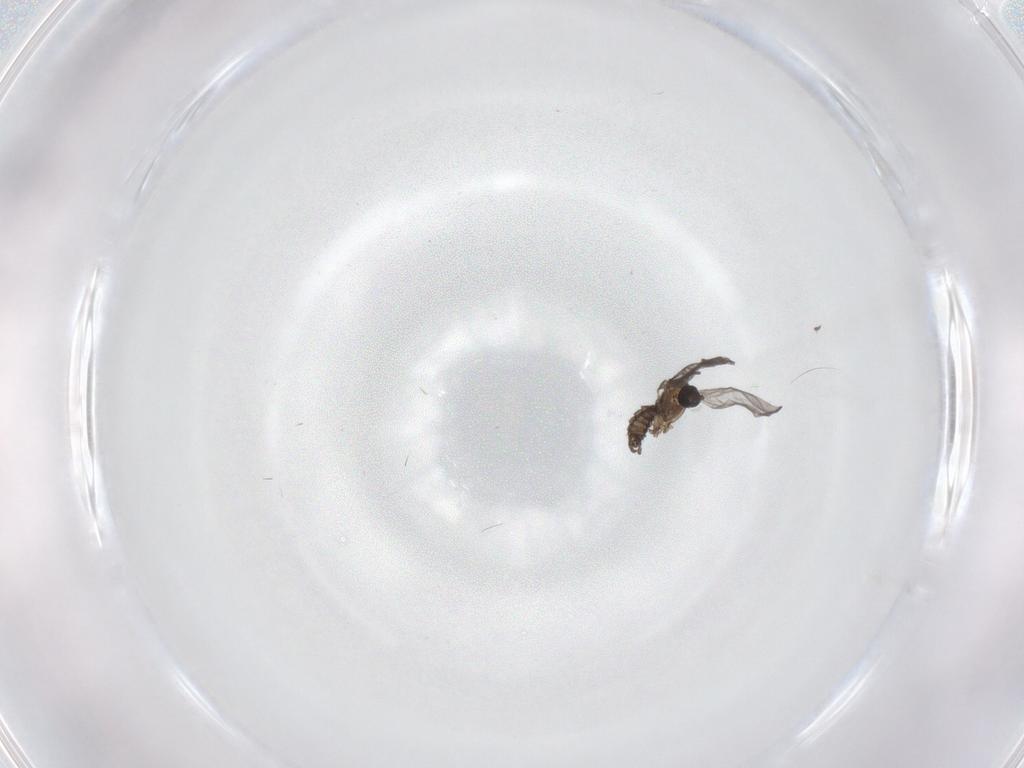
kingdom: Animalia
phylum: Arthropoda
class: Insecta
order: Diptera
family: Sciaridae
